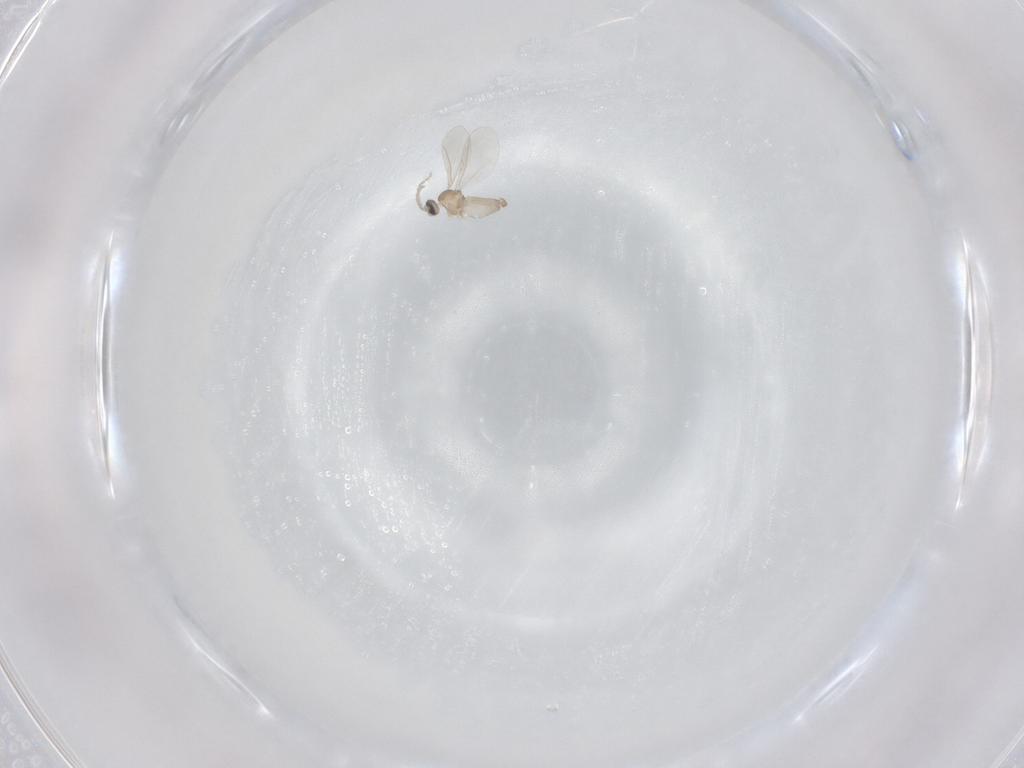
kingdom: Animalia
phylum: Arthropoda
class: Insecta
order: Diptera
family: Cecidomyiidae
